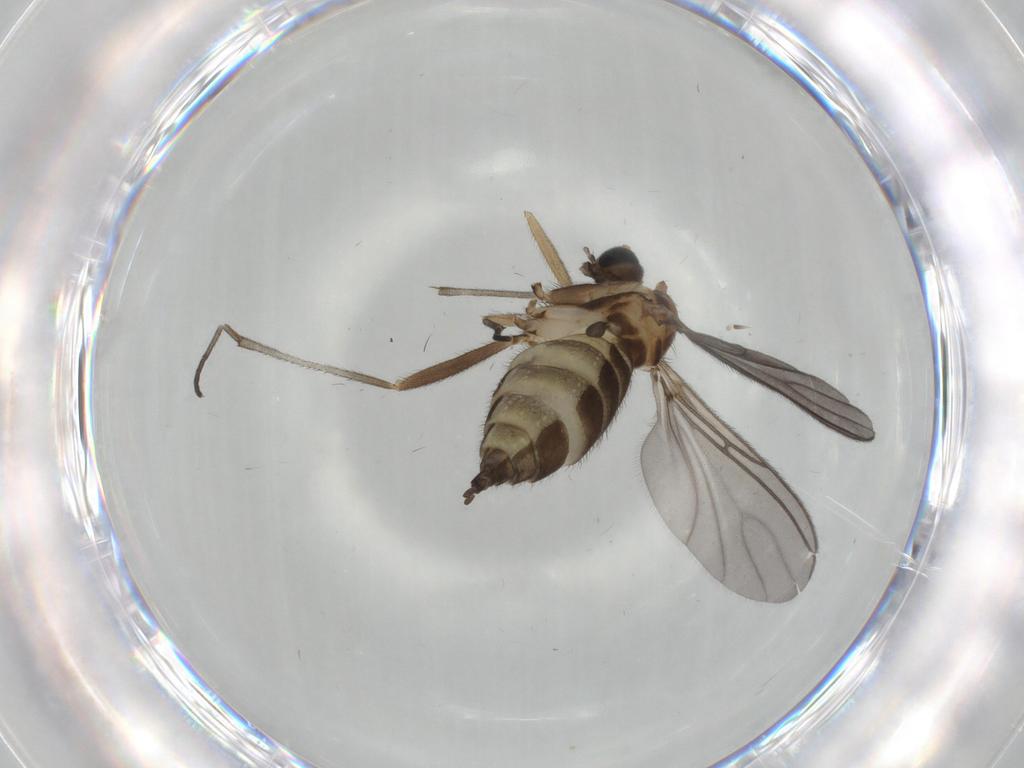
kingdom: Animalia
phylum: Arthropoda
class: Insecta
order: Diptera
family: Sciaridae
